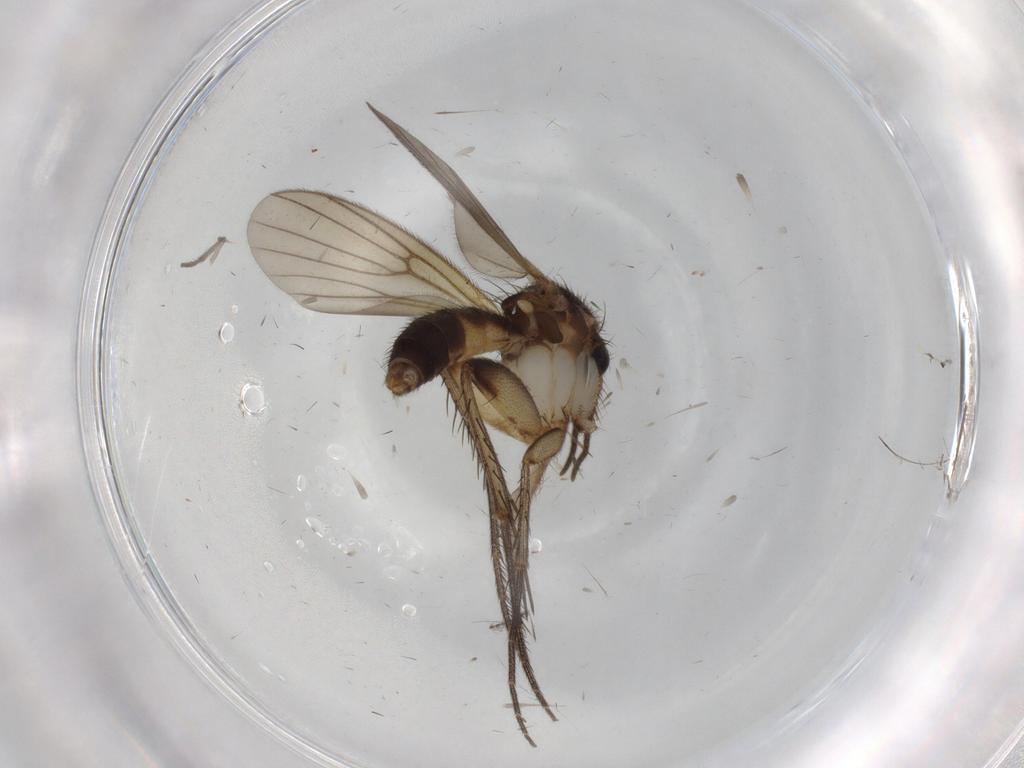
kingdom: Animalia
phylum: Arthropoda
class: Insecta
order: Diptera
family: Mycetophilidae
